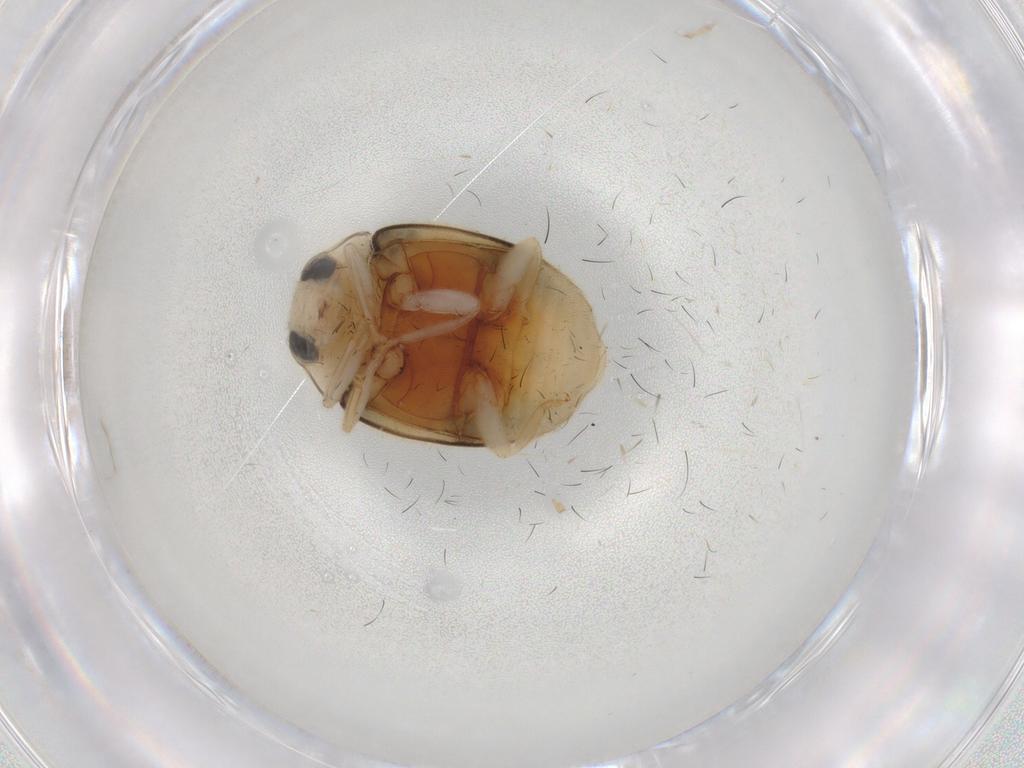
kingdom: Animalia
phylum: Arthropoda
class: Insecta
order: Coleoptera
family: Coccinellidae
